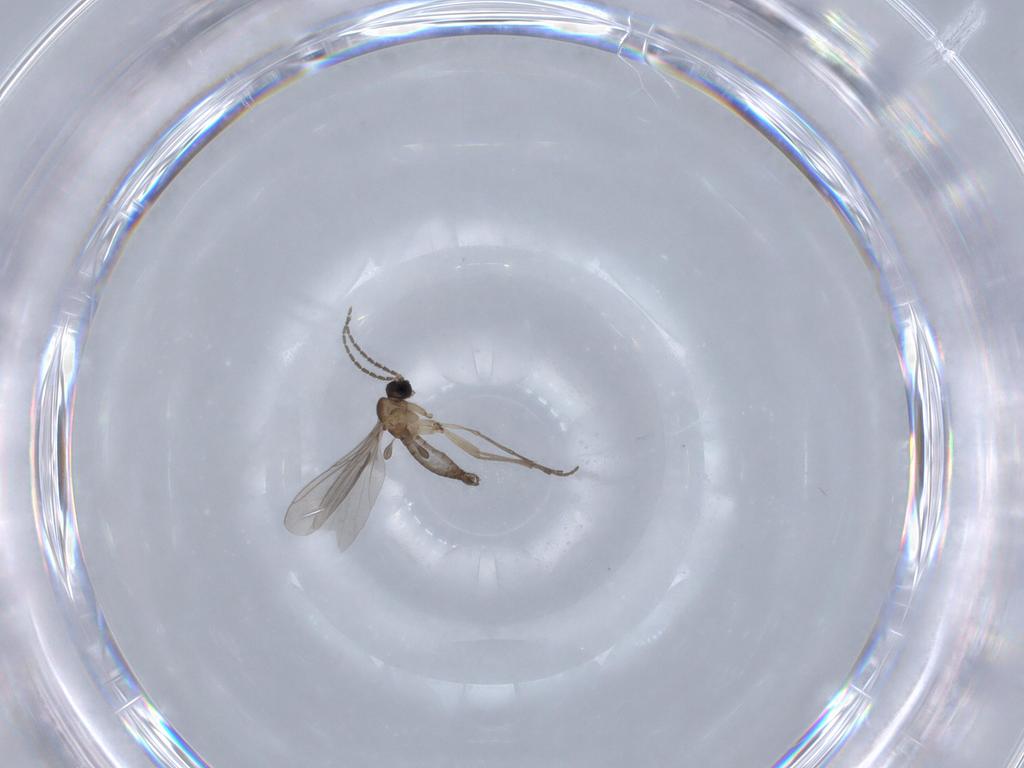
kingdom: Animalia
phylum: Arthropoda
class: Insecta
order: Diptera
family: Sciaridae
